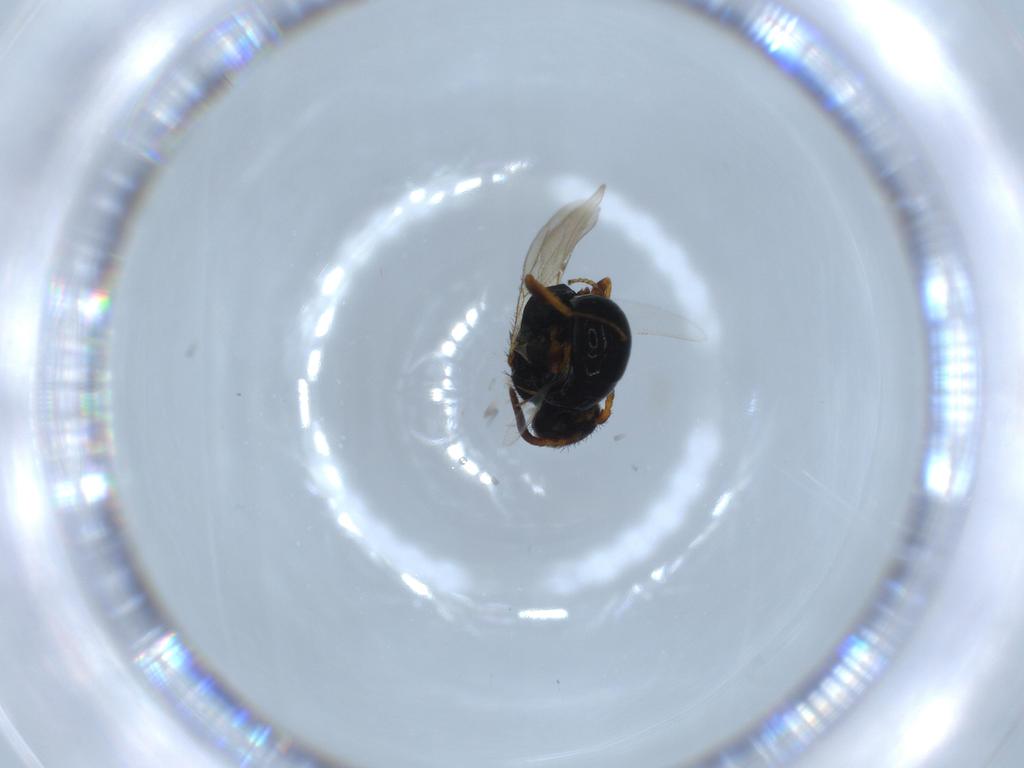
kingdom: Animalia
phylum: Arthropoda
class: Insecta
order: Hymenoptera
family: Bethylidae
